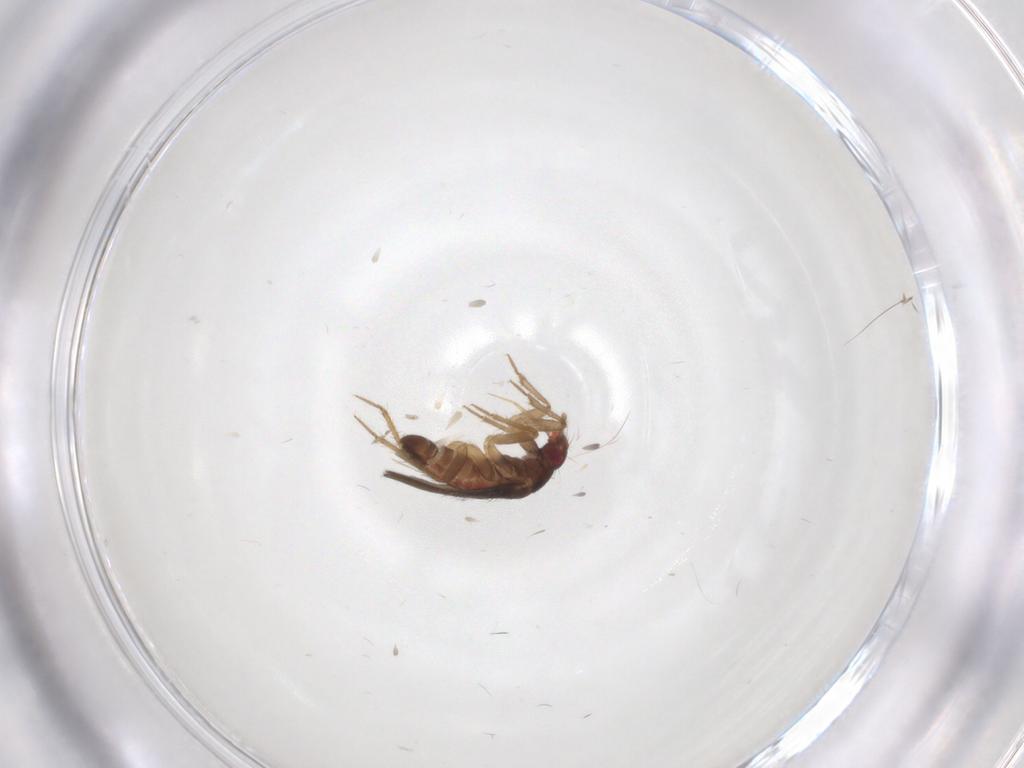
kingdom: Animalia
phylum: Arthropoda
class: Insecta
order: Hemiptera
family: Ceratocombidae
